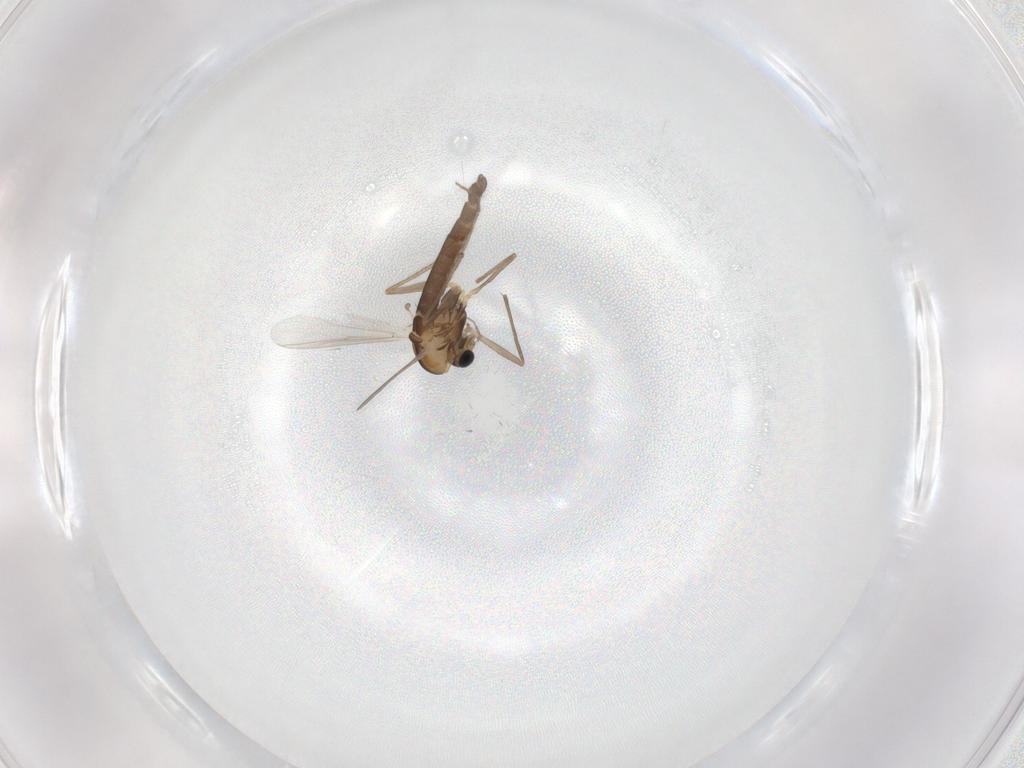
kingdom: Animalia
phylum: Arthropoda
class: Insecta
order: Diptera
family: Chironomidae
